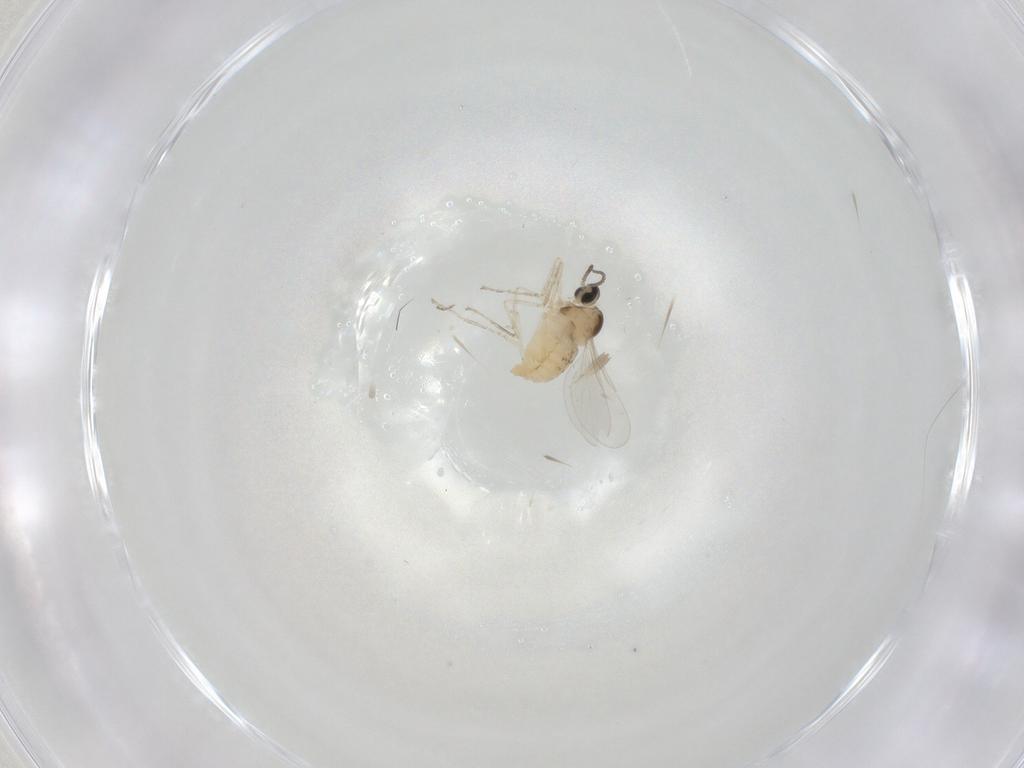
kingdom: Animalia
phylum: Arthropoda
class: Insecta
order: Diptera
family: Cecidomyiidae
